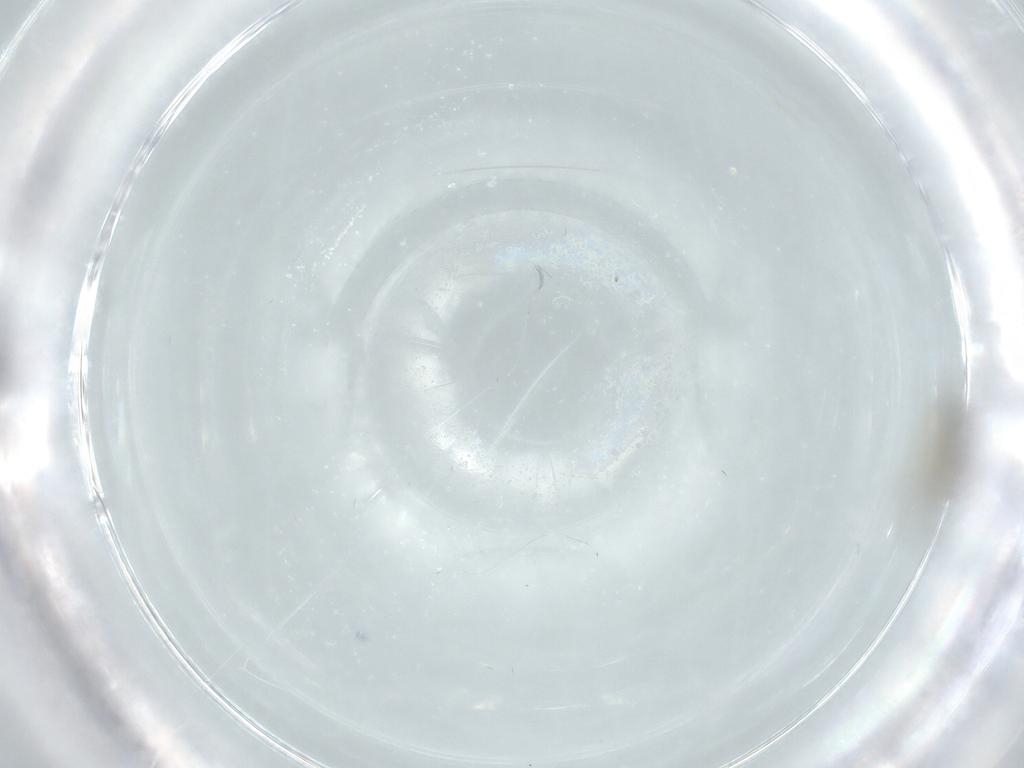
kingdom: Animalia
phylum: Arthropoda
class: Insecta
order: Diptera
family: Cecidomyiidae
